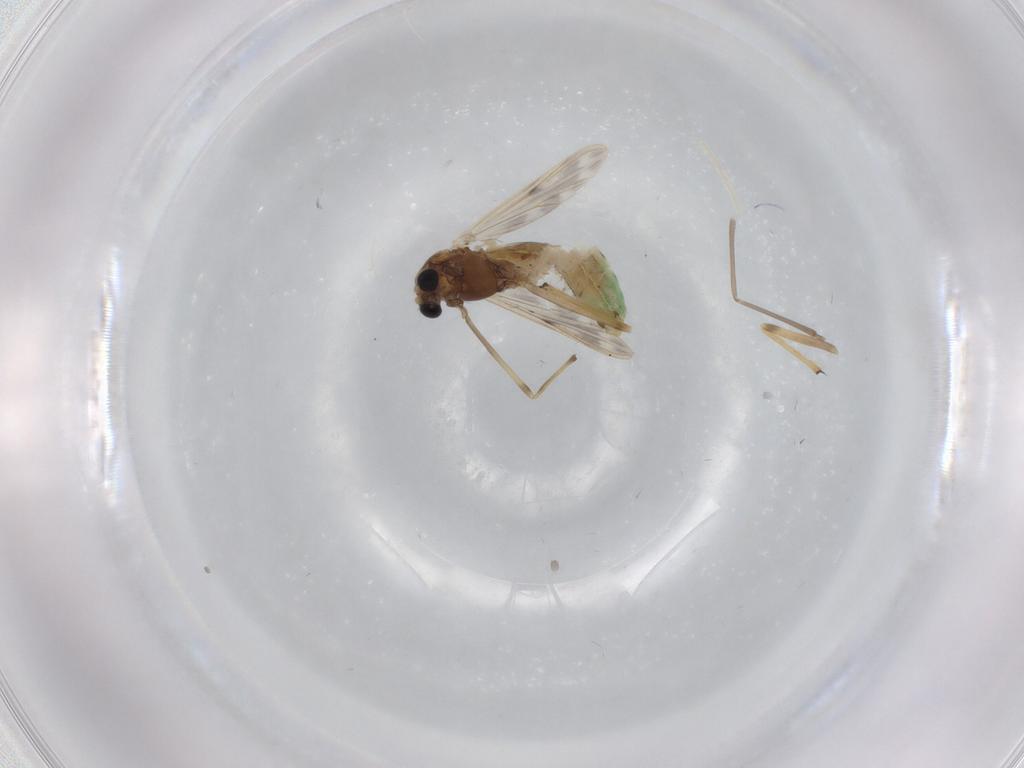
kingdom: Animalia
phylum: Arthropoda
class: Insecta
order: Diptera
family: Chironomidae
